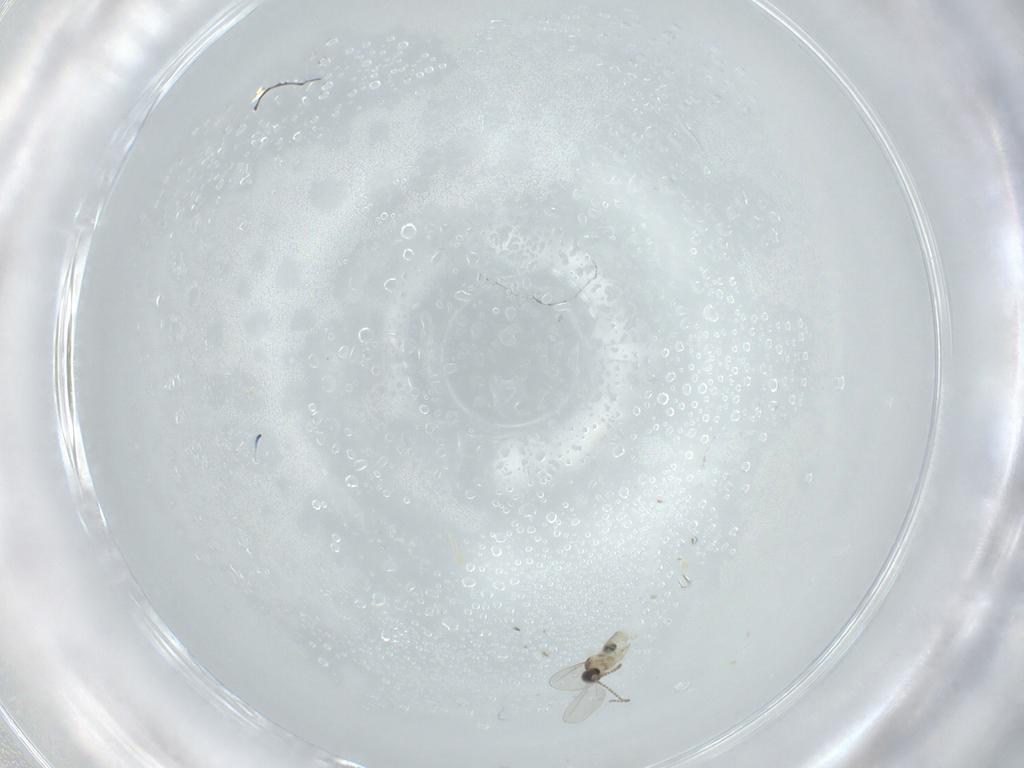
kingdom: Animalia
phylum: Arthropoda
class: Insecta
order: Diptera
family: Cecidomyiidae
